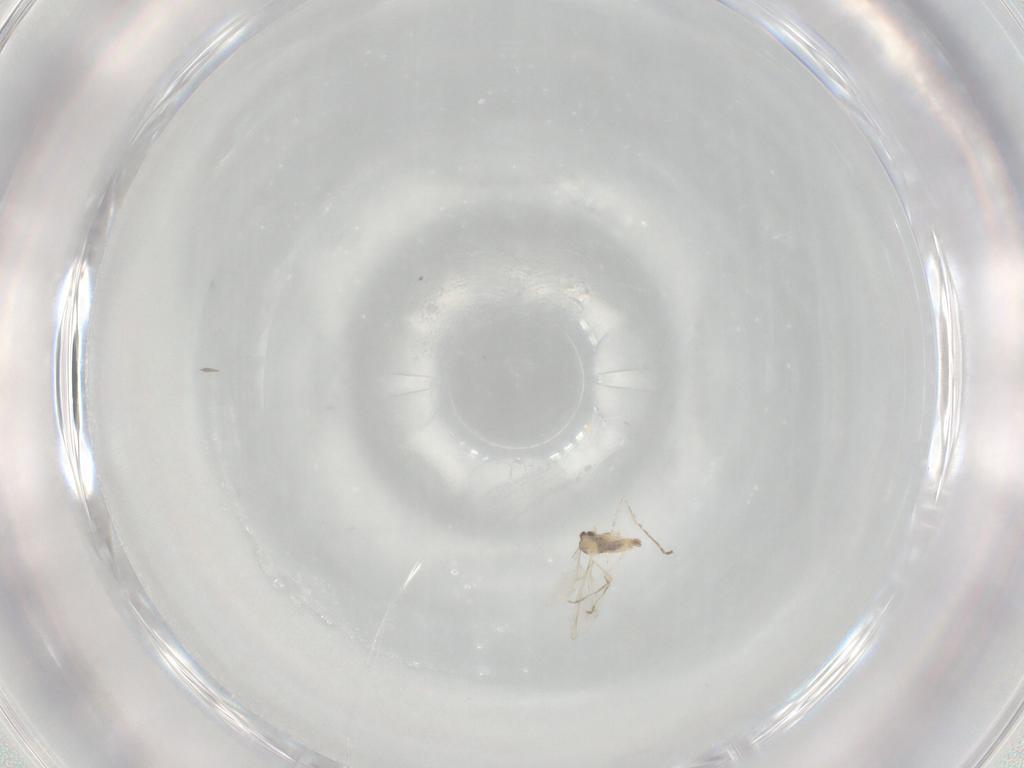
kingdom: Animalia
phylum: Arthropoda
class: Insecta
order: Diptera
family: Cecidomyiidae
